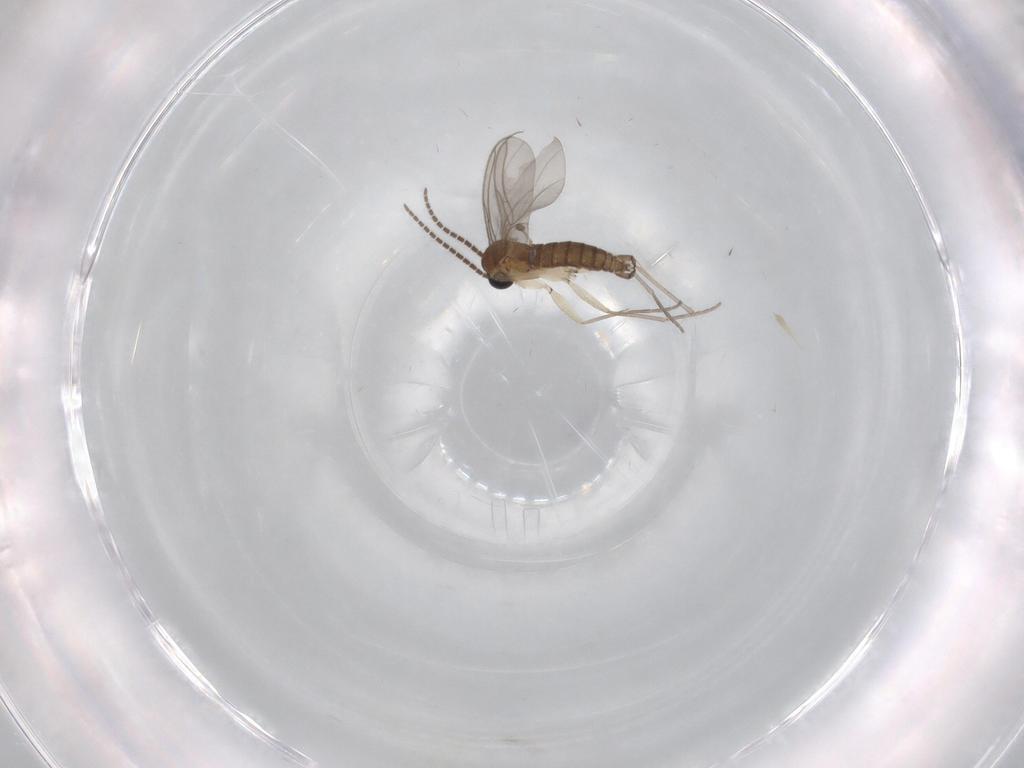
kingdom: Animalia
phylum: Arthropoda
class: Insecta
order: Diptera
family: Sciaridae
